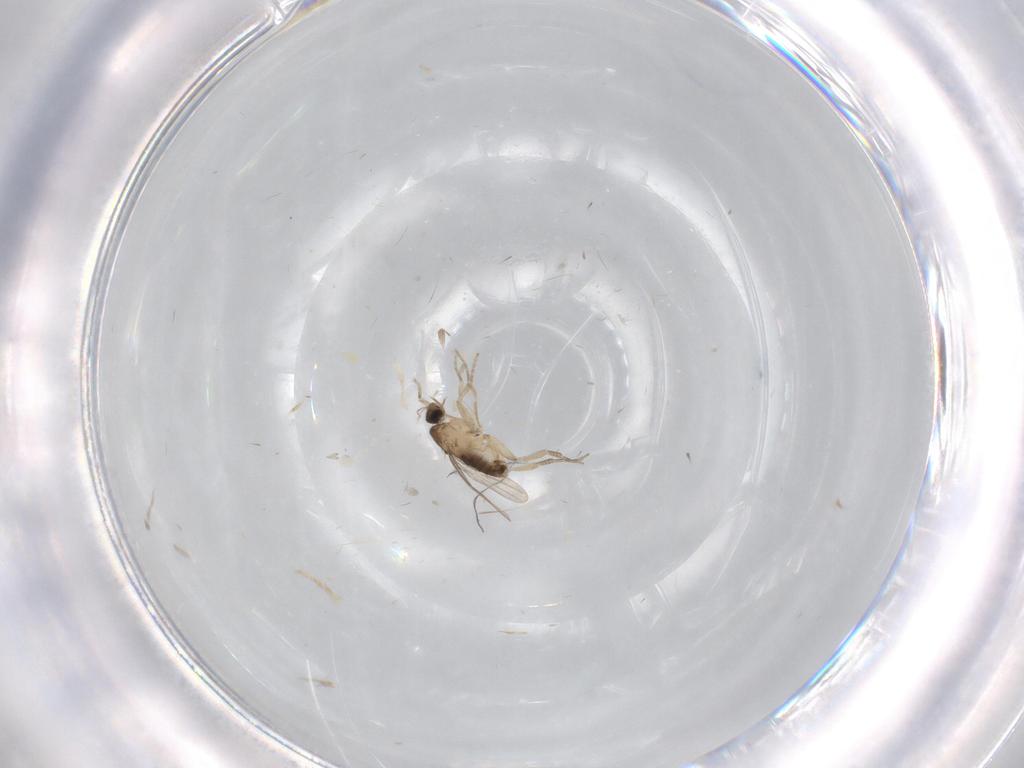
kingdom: Animalia
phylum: Arthropoda
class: Insecta
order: Diptera
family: Phoridae
